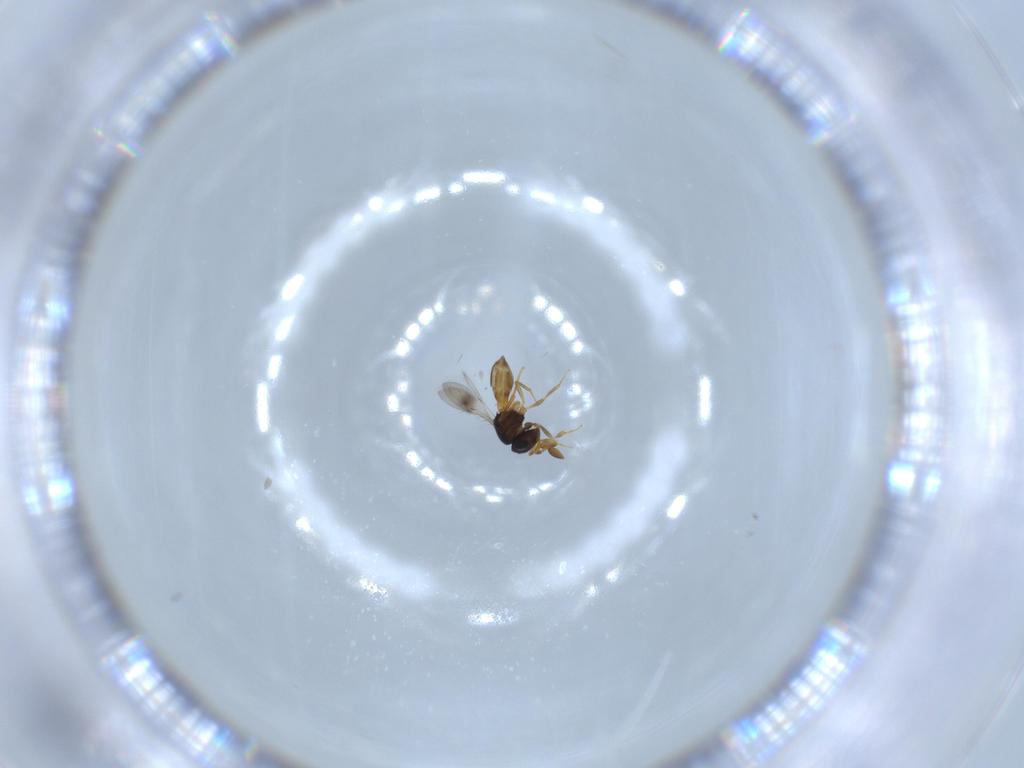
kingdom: Animalia
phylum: Arthropoda
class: Insecta
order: Hymenoptera
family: Scelionidae
